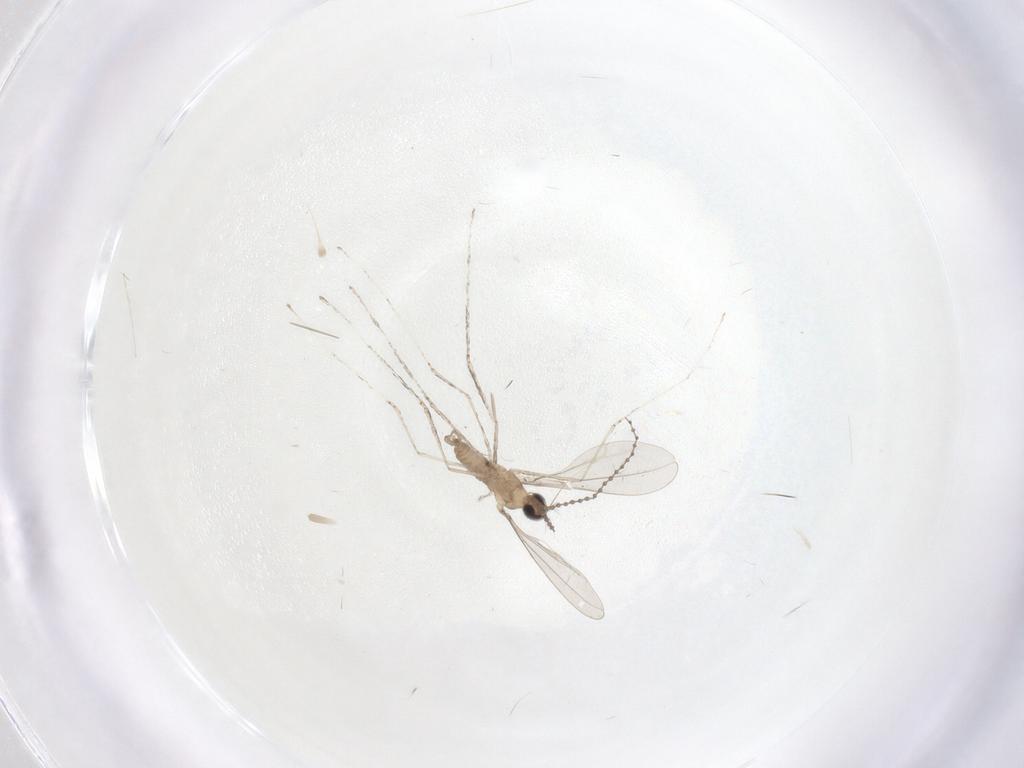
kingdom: Animalia
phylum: Arthropoda
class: Insecta
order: Diptera
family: Cecidomyiidae
